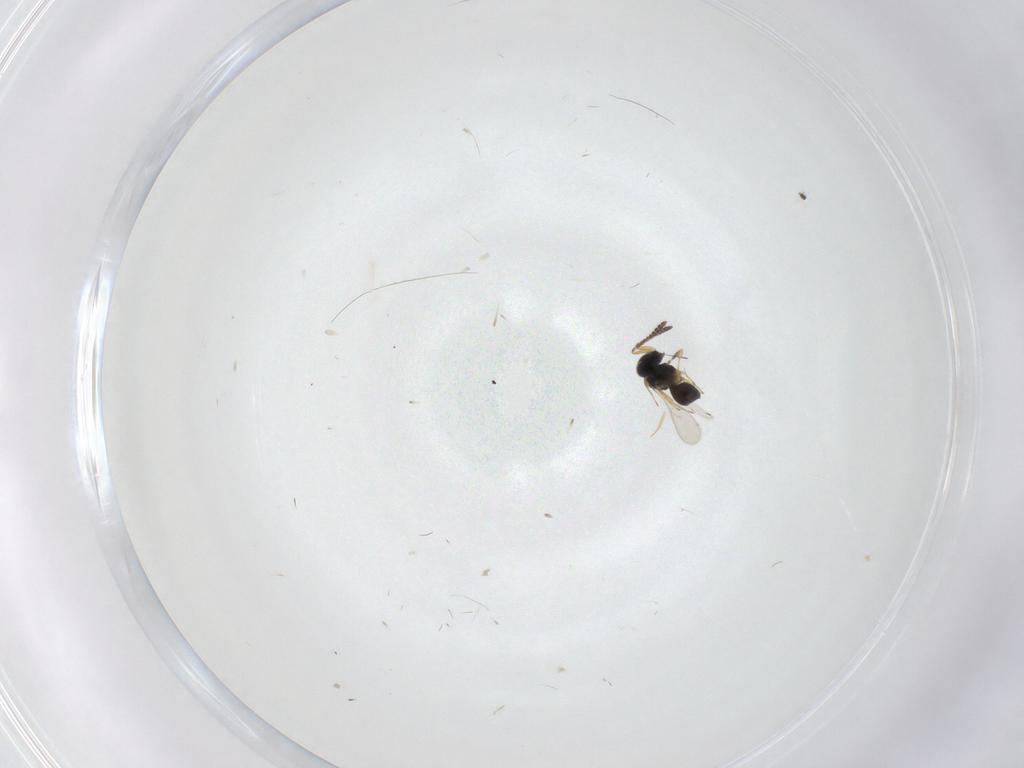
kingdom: Animalia
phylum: Arthropoda
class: Insecta
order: Hymenoptera
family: Scelionidae
